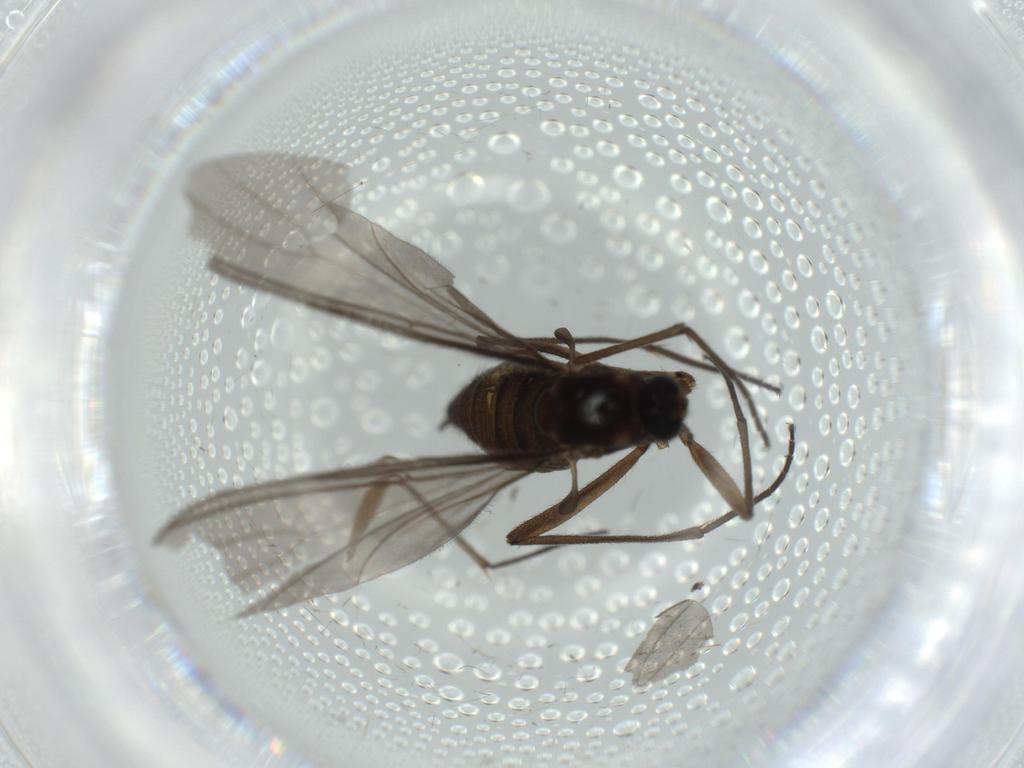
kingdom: Animalia
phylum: Arthropoda
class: Insecta
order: Diptera
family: Sciaridae
